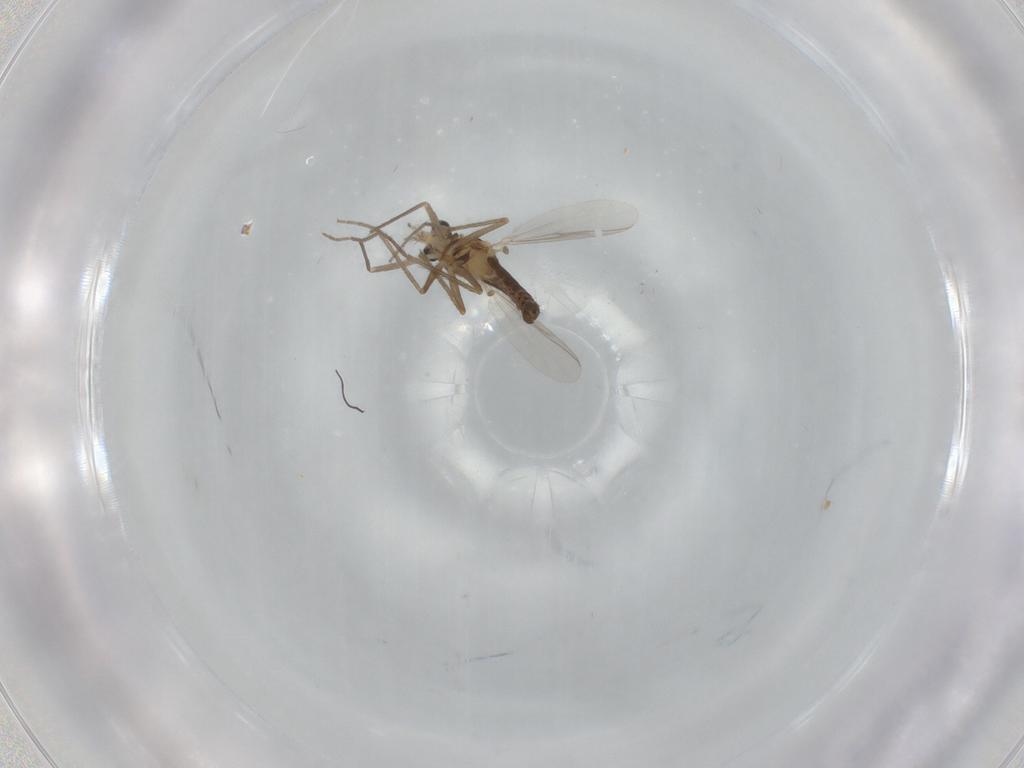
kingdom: Animalia
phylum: Arthropoda
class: Insecta
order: Diptera
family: Chironomidae
